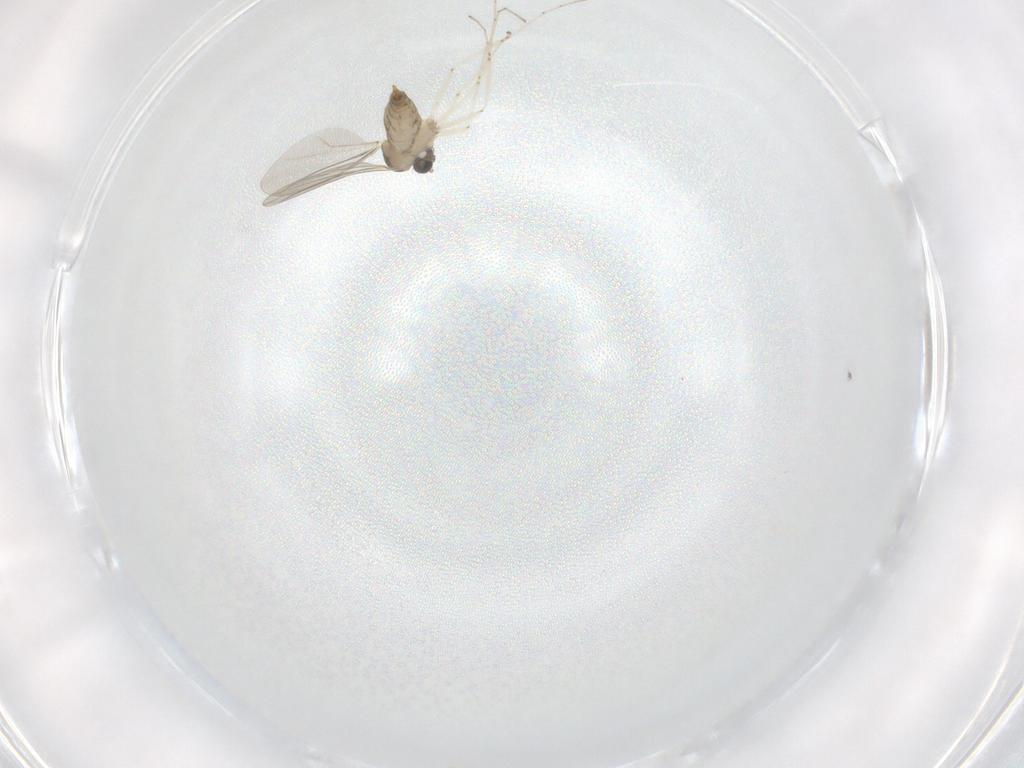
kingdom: Animalia
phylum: Arthropoda
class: Insecta
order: Diptera
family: Cecidomyiidae
